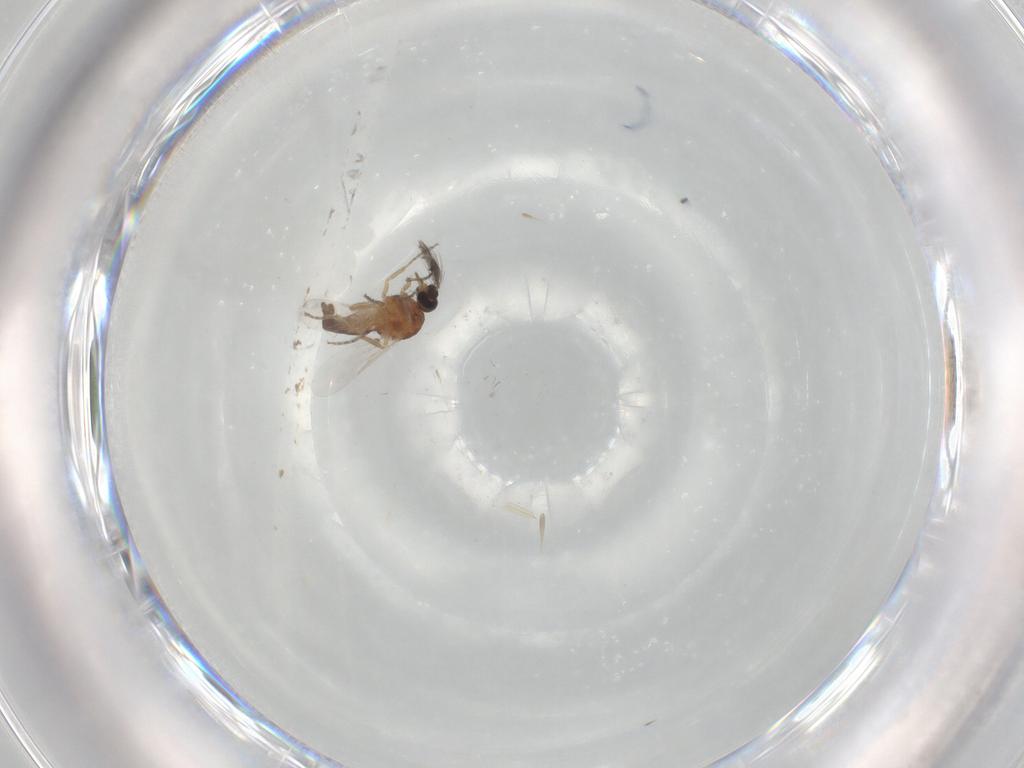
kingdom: Animalia
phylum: Arthropoda
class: Insecta
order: Diptera
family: Ceratopogonidae
